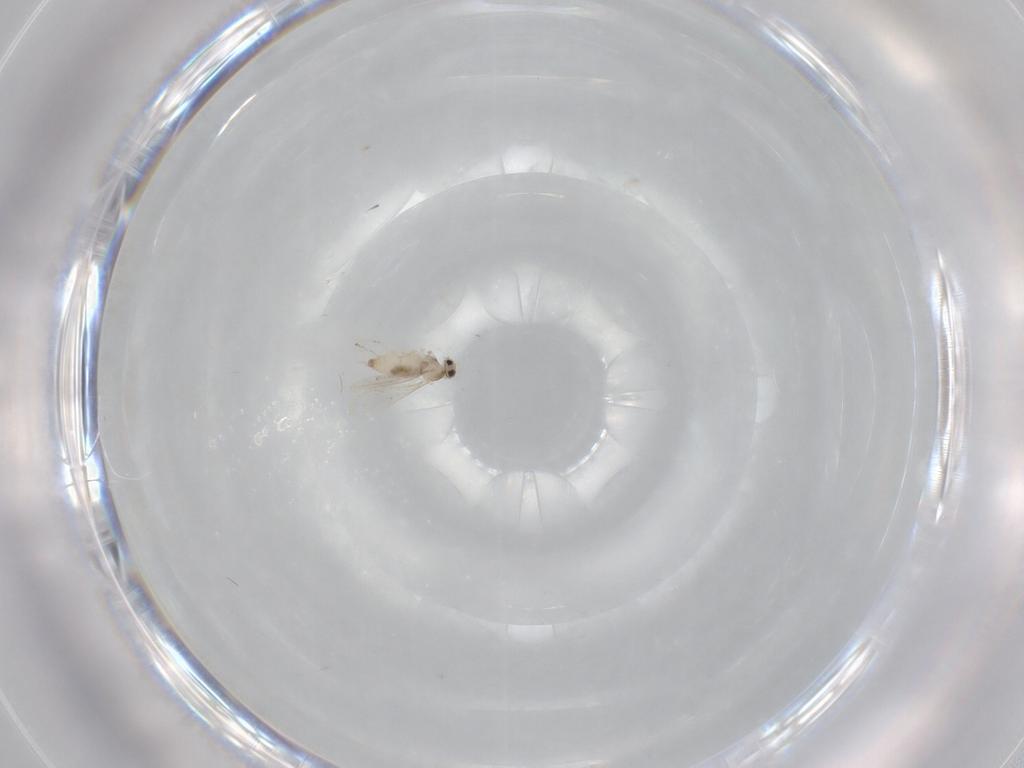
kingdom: Animalia
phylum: Arthropoda
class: Insecta
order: Diptera
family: Cecidomyiidae
